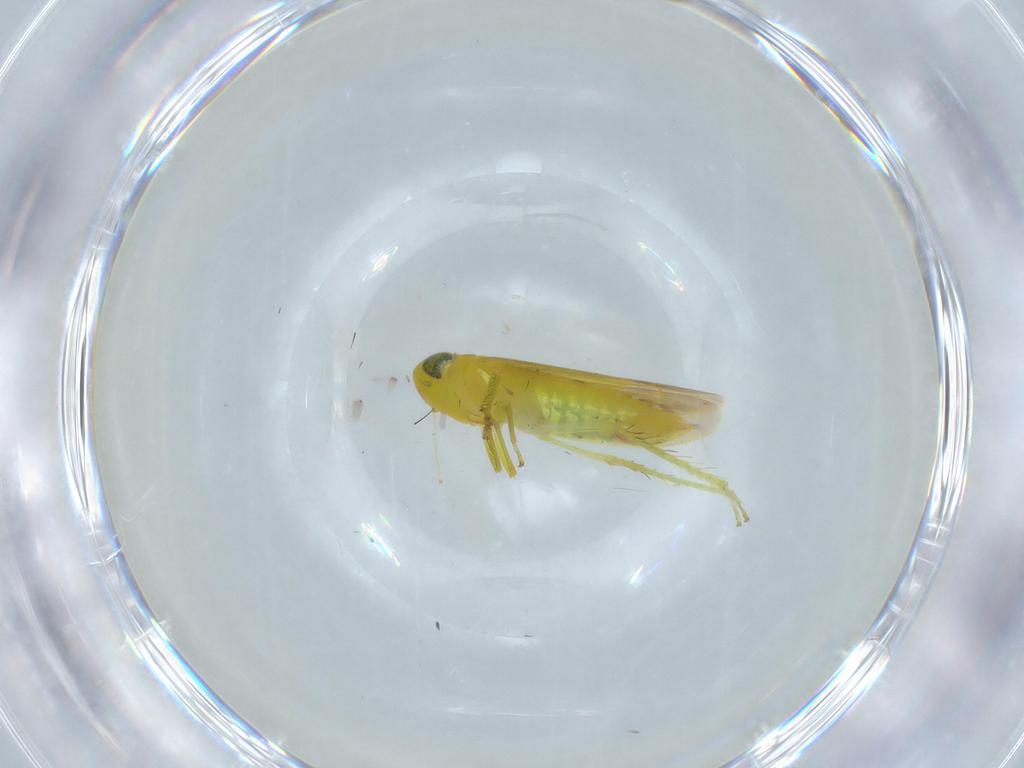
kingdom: Animalia
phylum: Arthropoda
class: Insecta
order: Hemiptera
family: Cicadellidae
